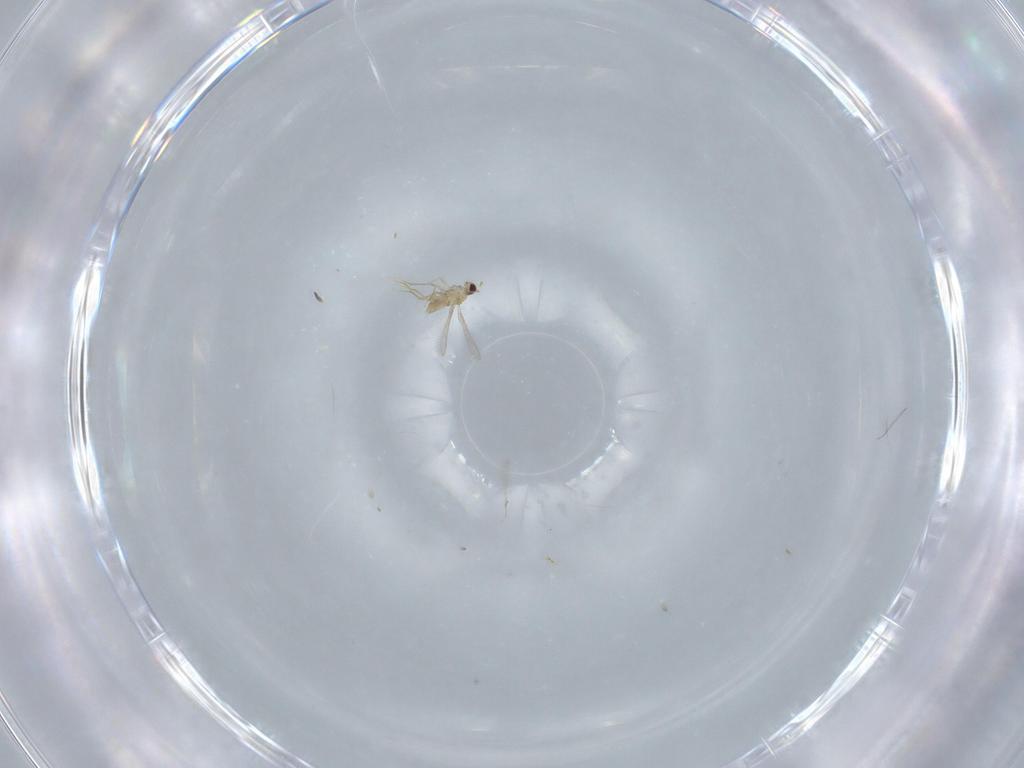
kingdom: Animalia
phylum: Arthropoda
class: Insecta
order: Hymenoptera
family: Mymaridae
